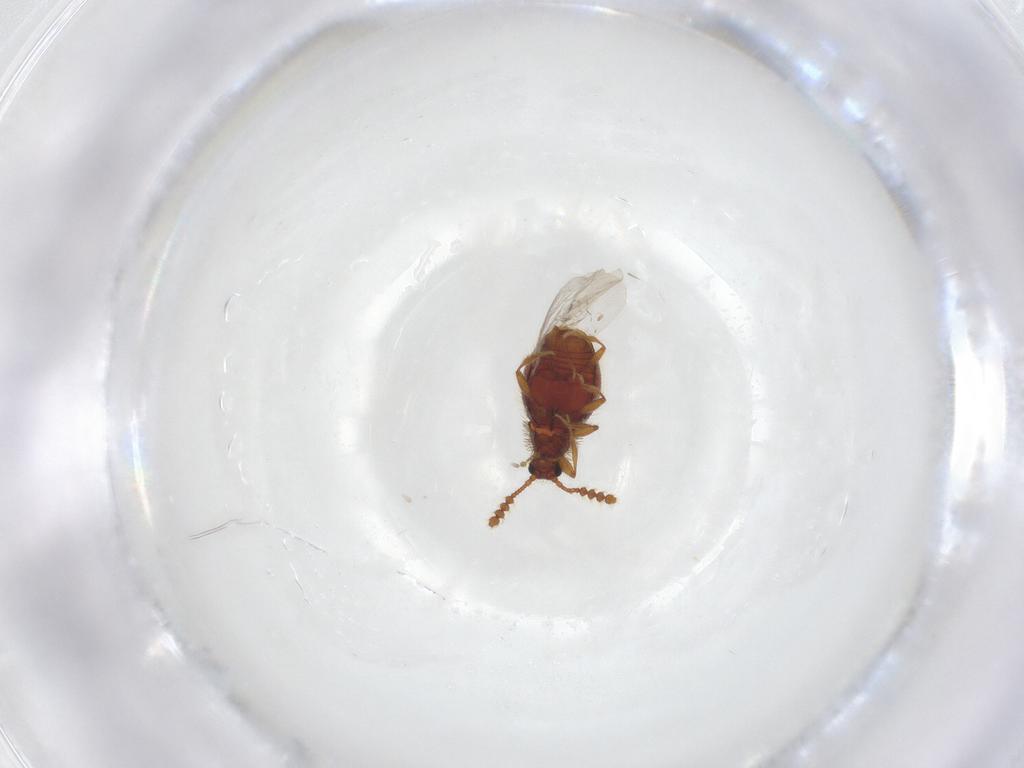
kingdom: Animalia
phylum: Arthropoda
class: Insecta
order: Coleoptera
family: Staphylinidae
